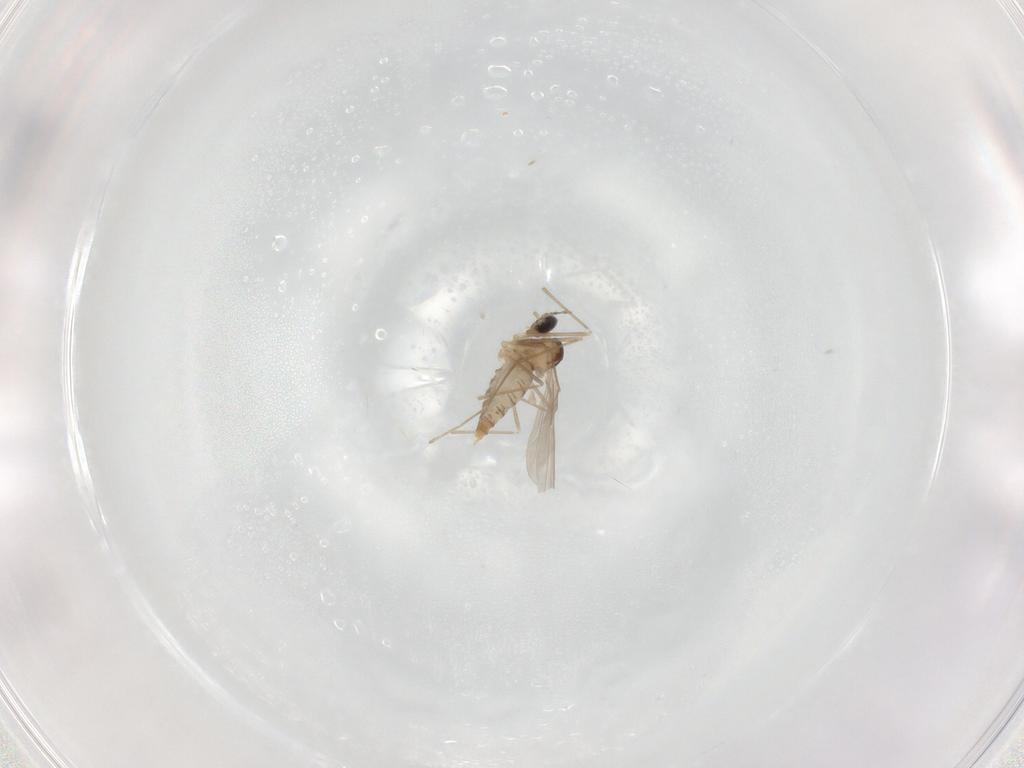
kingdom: Animalia
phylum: Arthropoda
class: Insecta
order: Diptera
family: Cecidomyiidae
